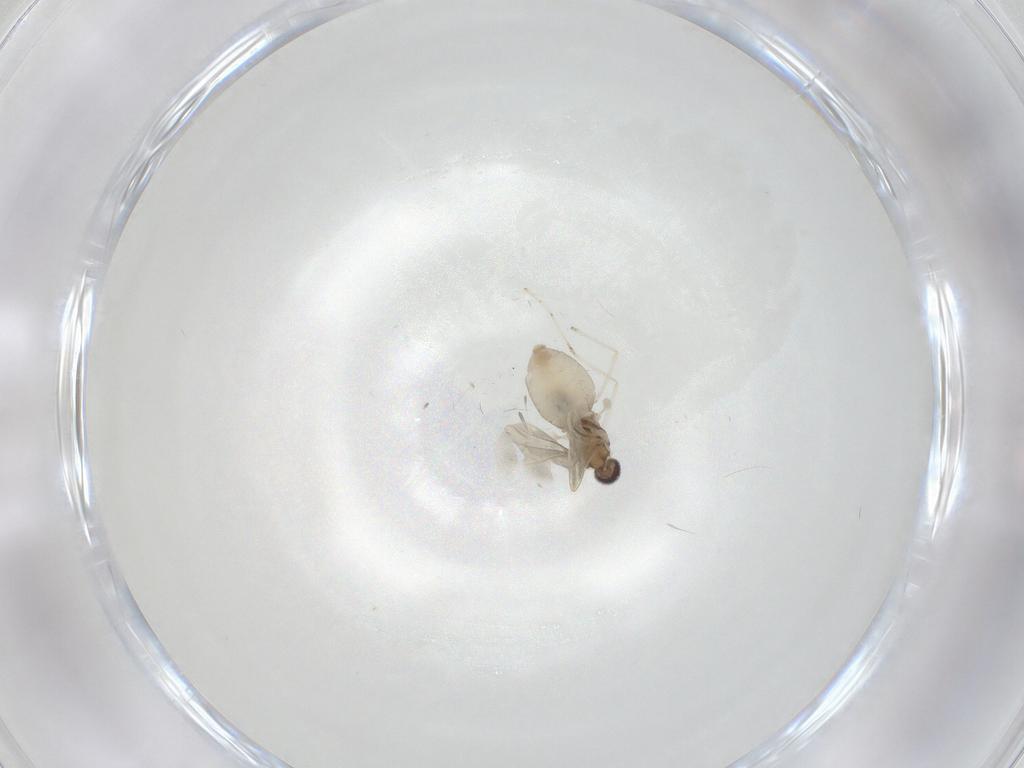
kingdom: Animalia
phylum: Arthropoda
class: Insecta
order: Diptera
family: Cecidomyiidae
